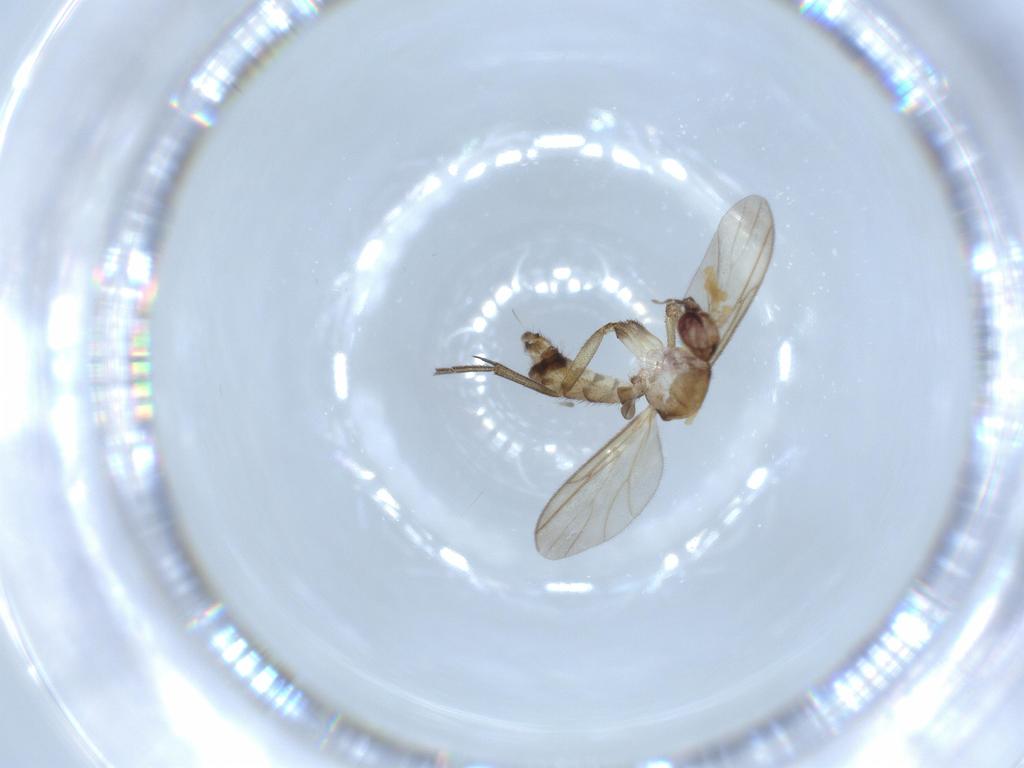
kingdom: Animalia
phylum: Arthropoda
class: Insecta
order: Diptera
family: Mycetophilidae
